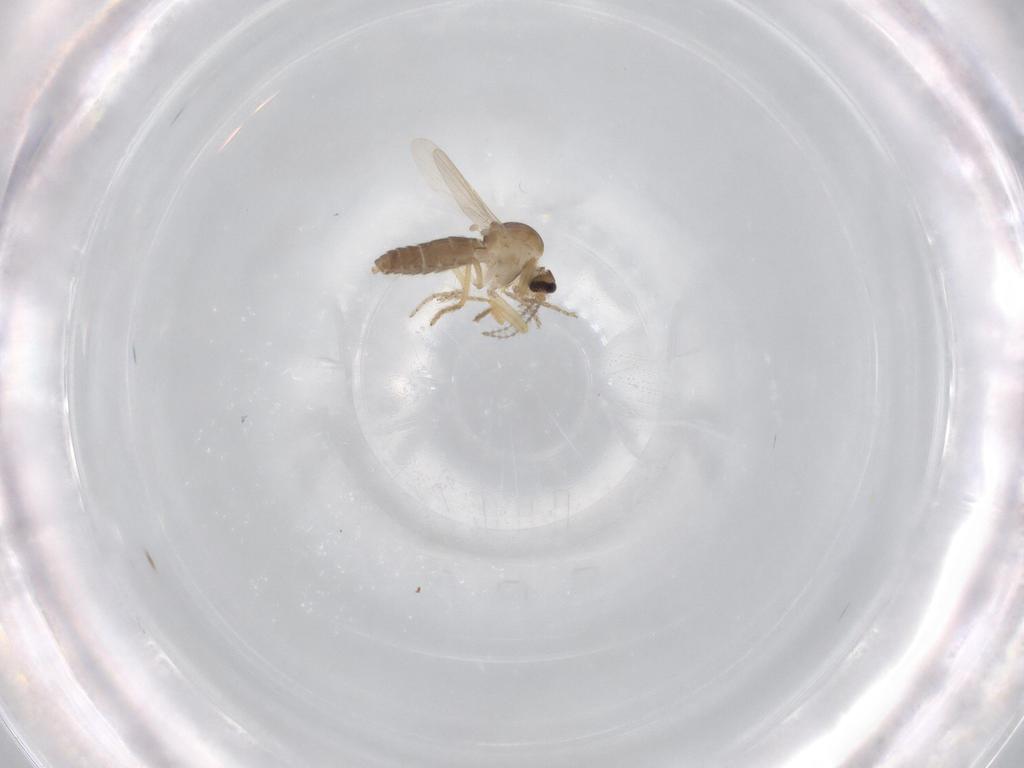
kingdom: Animalia
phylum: Arthropoda
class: Insecta
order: Diptera
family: Ceratopogonidae
